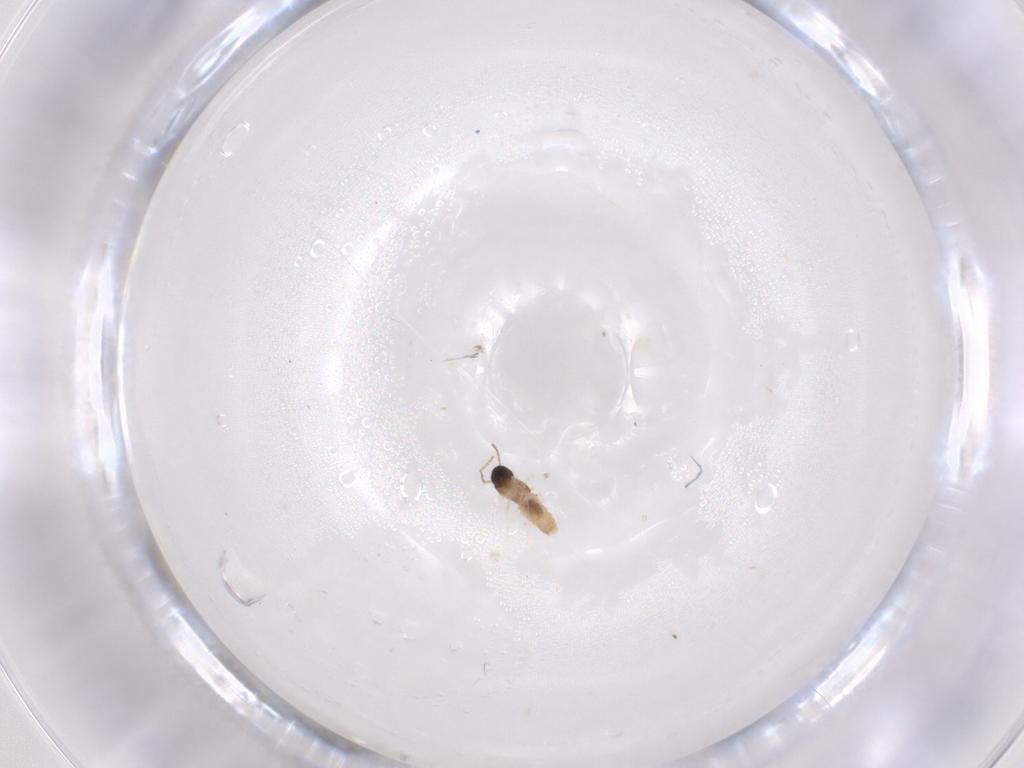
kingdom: Animalia
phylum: Arthropoda
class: Insecta
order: Diptera
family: Cecidomyiidae
